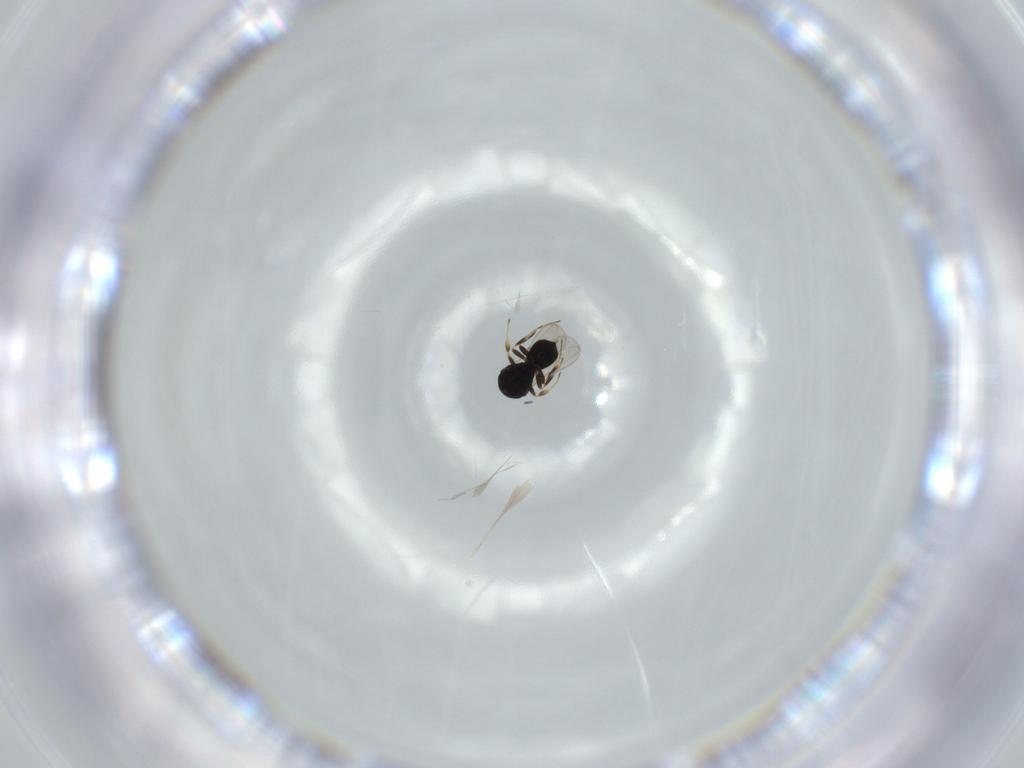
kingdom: Animalia
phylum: Arthropoda
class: Insecta
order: Hymenoptera
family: Scelionidae
